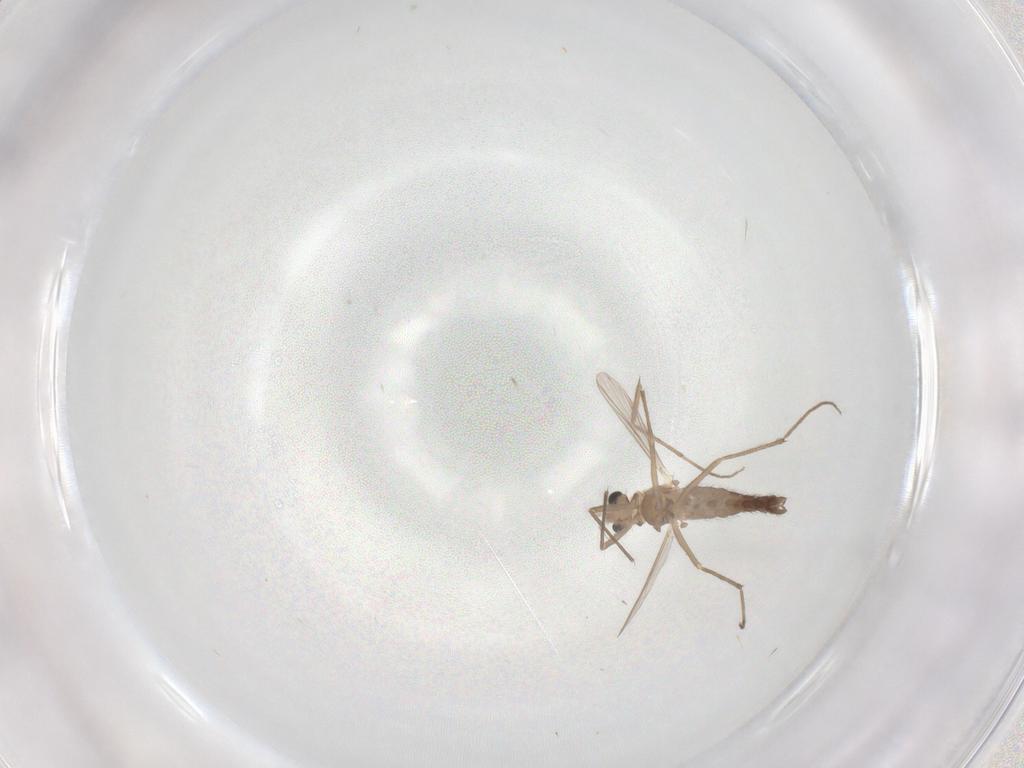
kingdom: Animalia
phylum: Arthropoda
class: Insecta
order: Diptera
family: Chironomidae
